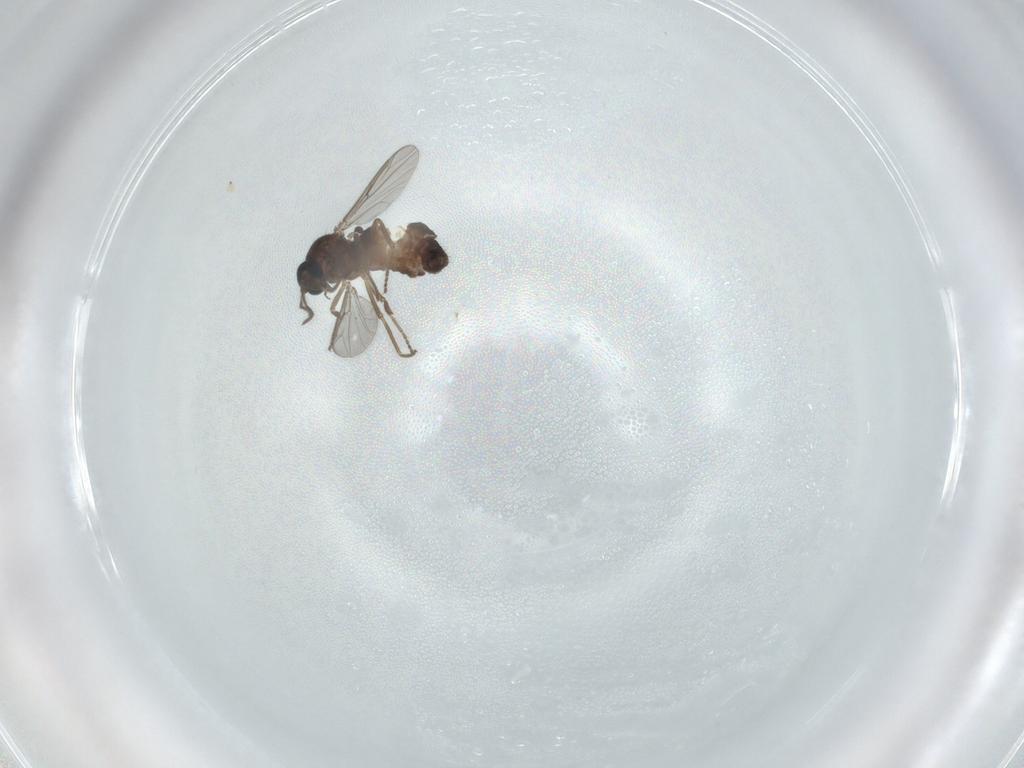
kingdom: Animalia
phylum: Arthropoda
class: Insecta
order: Diptera
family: Ceratopogonidae
